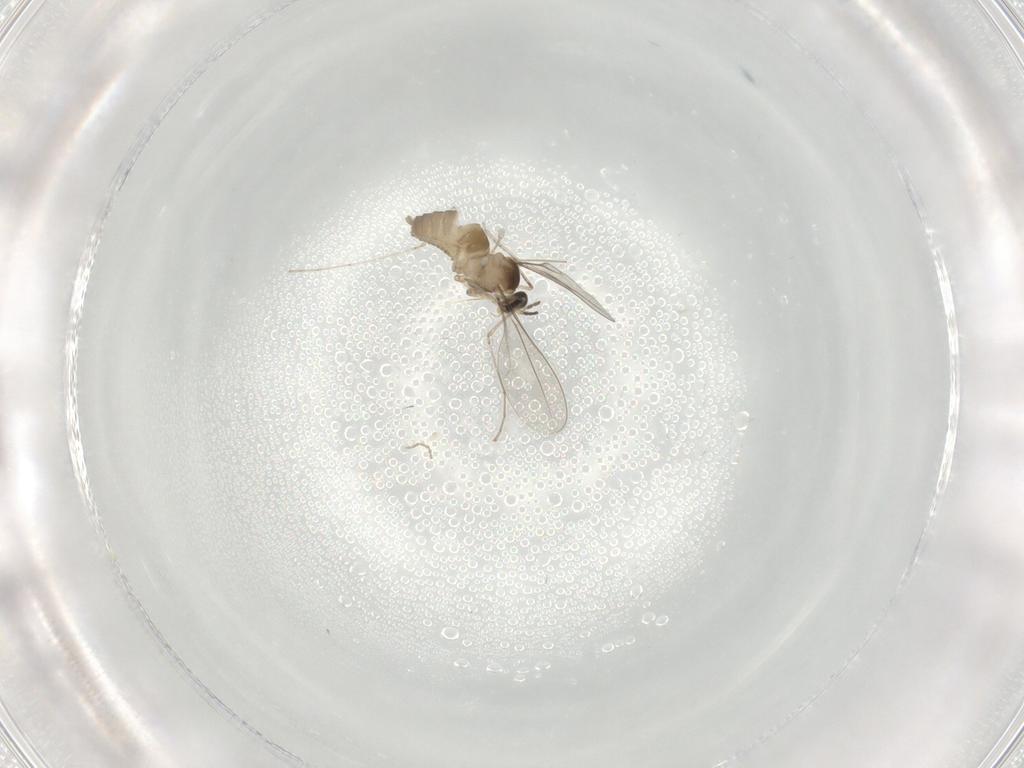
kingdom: Animalia
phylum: Arthropoda
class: Insecta
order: Diptera
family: Cecidomyiidae
